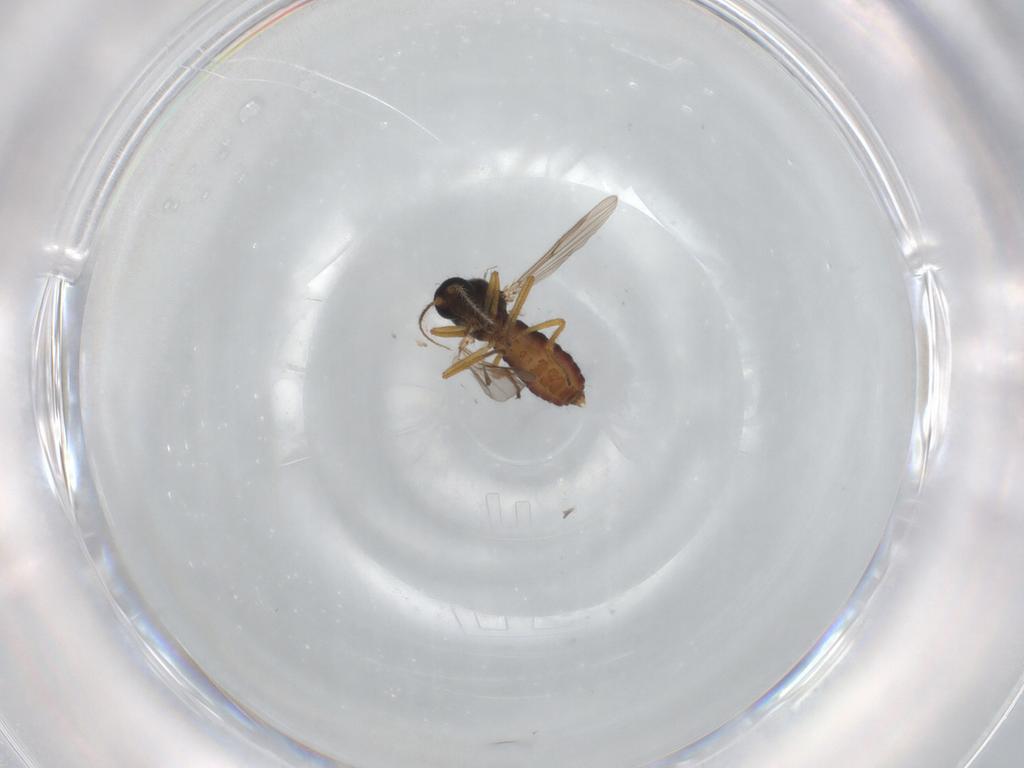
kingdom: Animalia
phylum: Arthropoda
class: Insecta
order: Diptera
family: Ceratopogonidae
